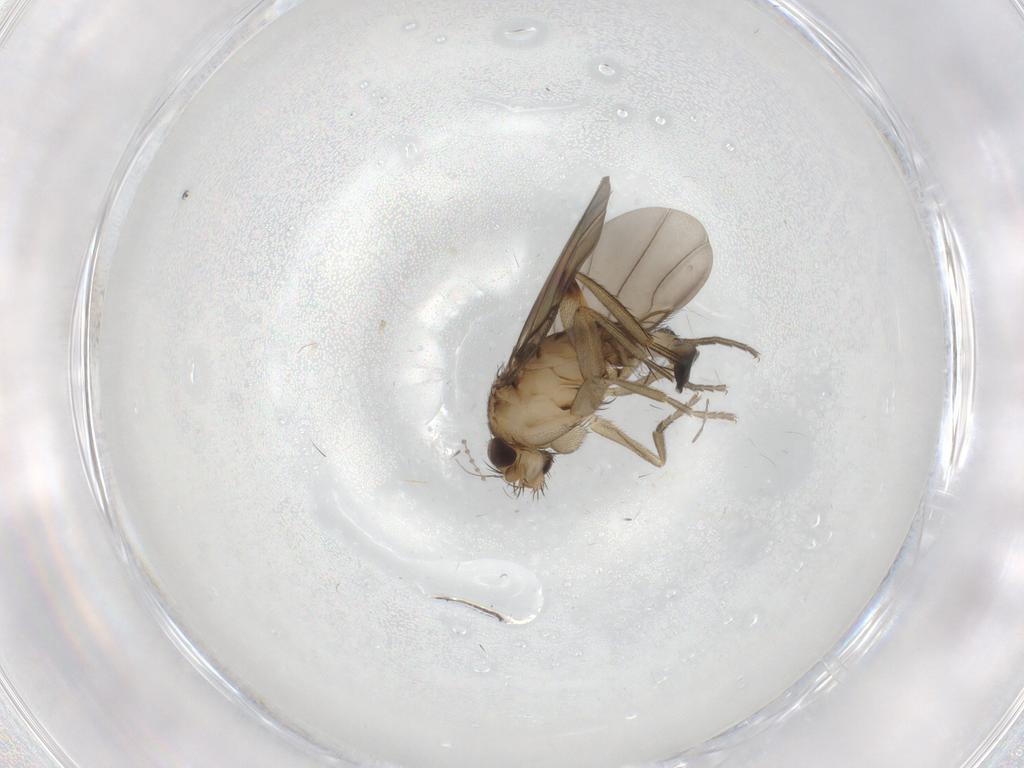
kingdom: Animalia
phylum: Arthropoda
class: Insecta
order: Diptera
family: Phoridae
